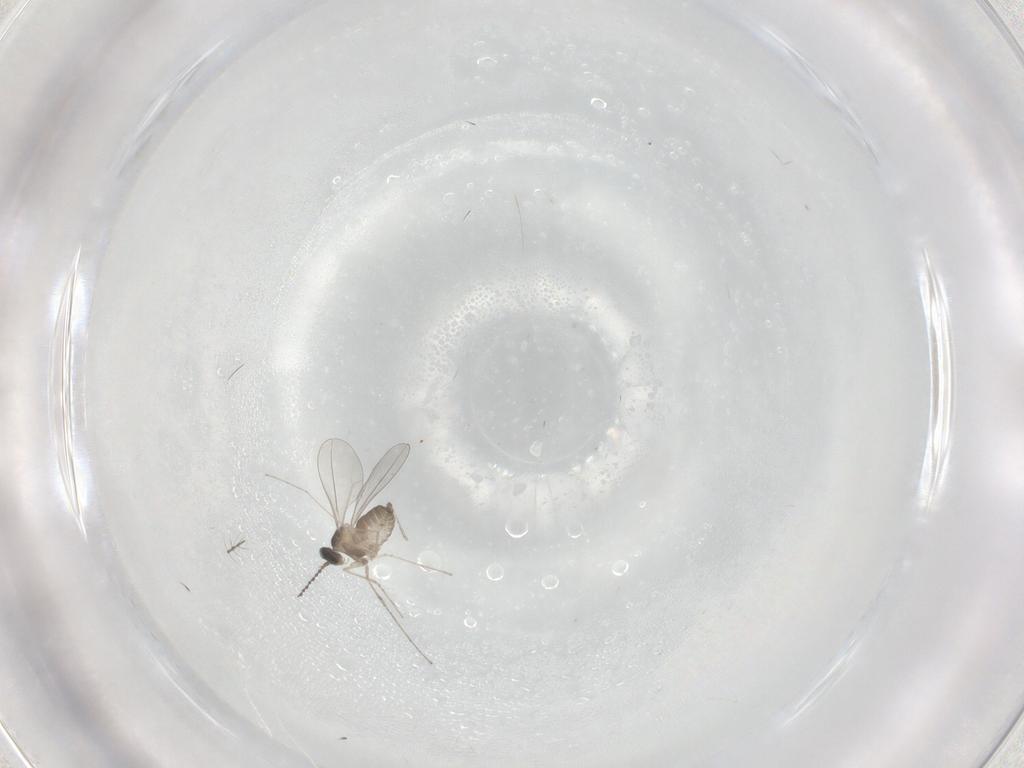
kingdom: Animalia
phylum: Arthropoda
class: Insecta
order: Diptera
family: Cecidomyiidae
